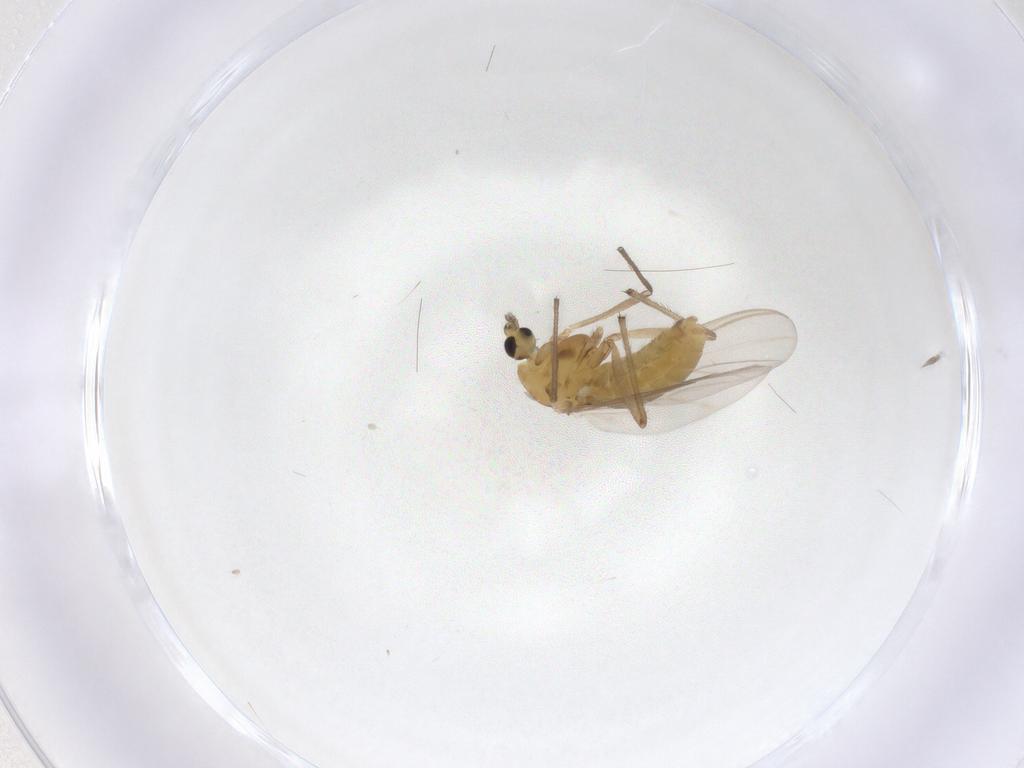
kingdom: Animalia
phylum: Arthropoda
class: Insecta
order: Diptera
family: Chironomidae
